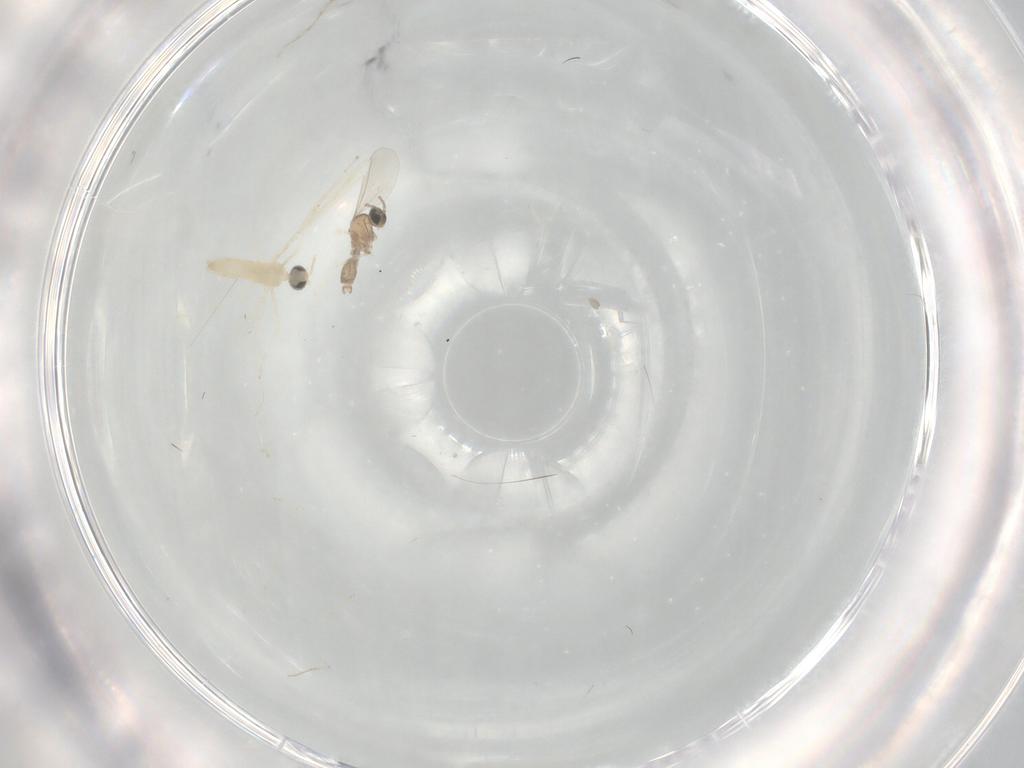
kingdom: Animalia
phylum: Arthropoda
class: Insecta
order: Diptera
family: Cecidomyiidae
